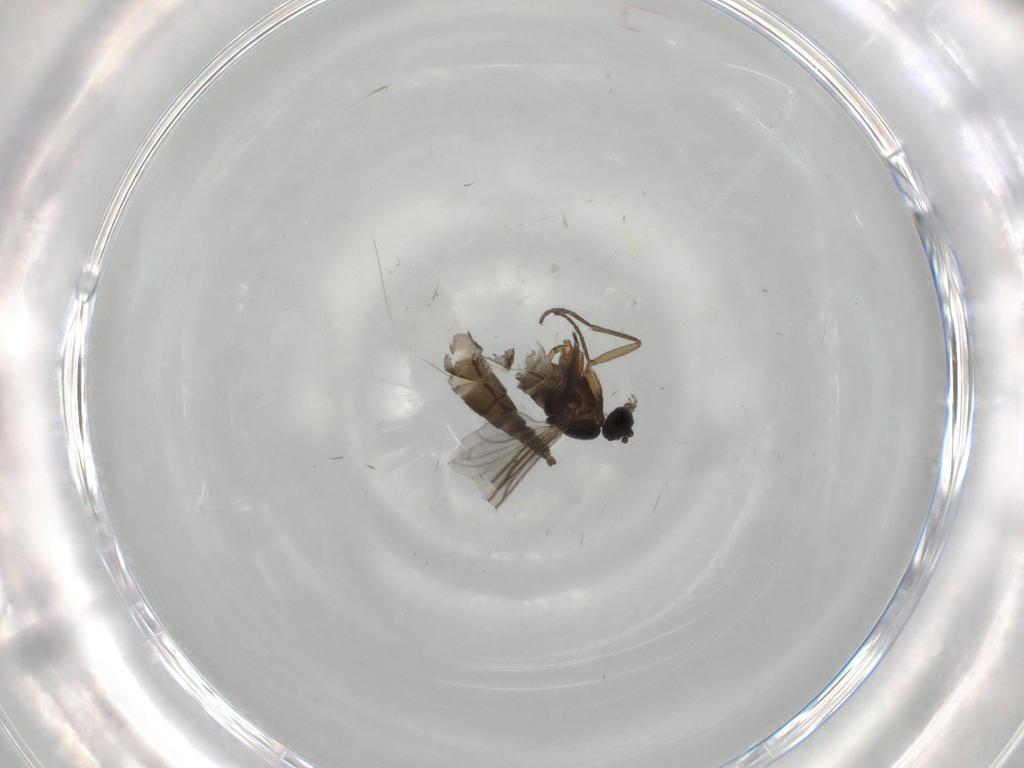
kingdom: Animalia
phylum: Arthropoda
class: Insecta
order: Diptera
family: Sciaridae
